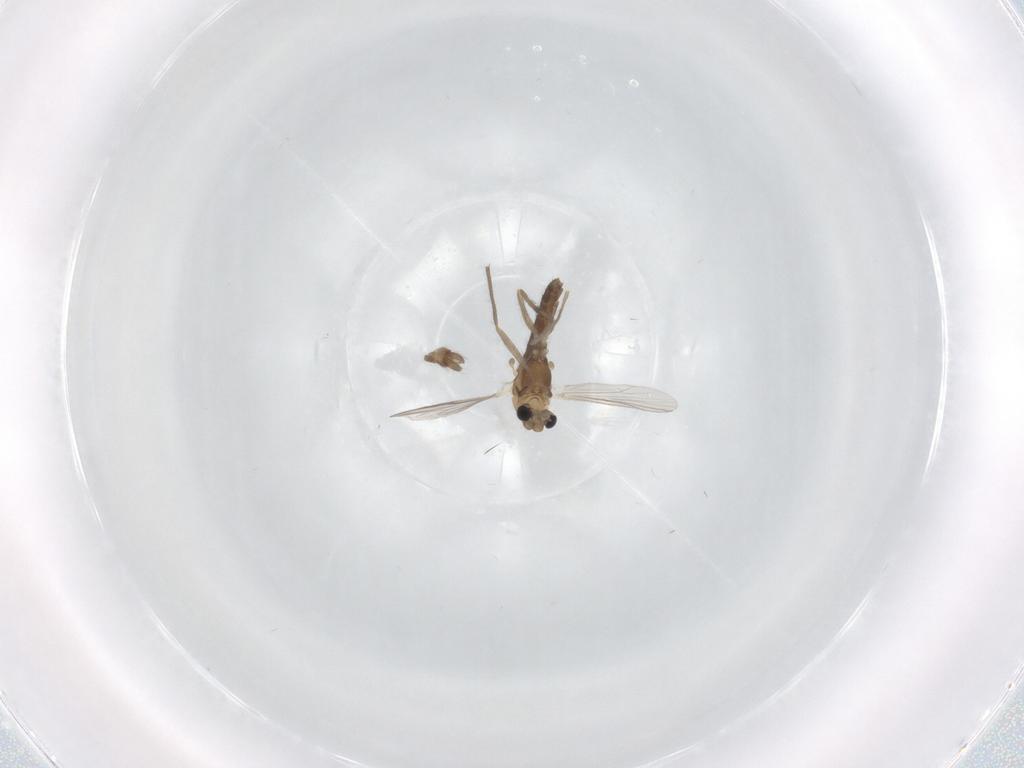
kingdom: Animalia
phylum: Arthropoda
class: Insecta
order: Diptera
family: Chironomidae
